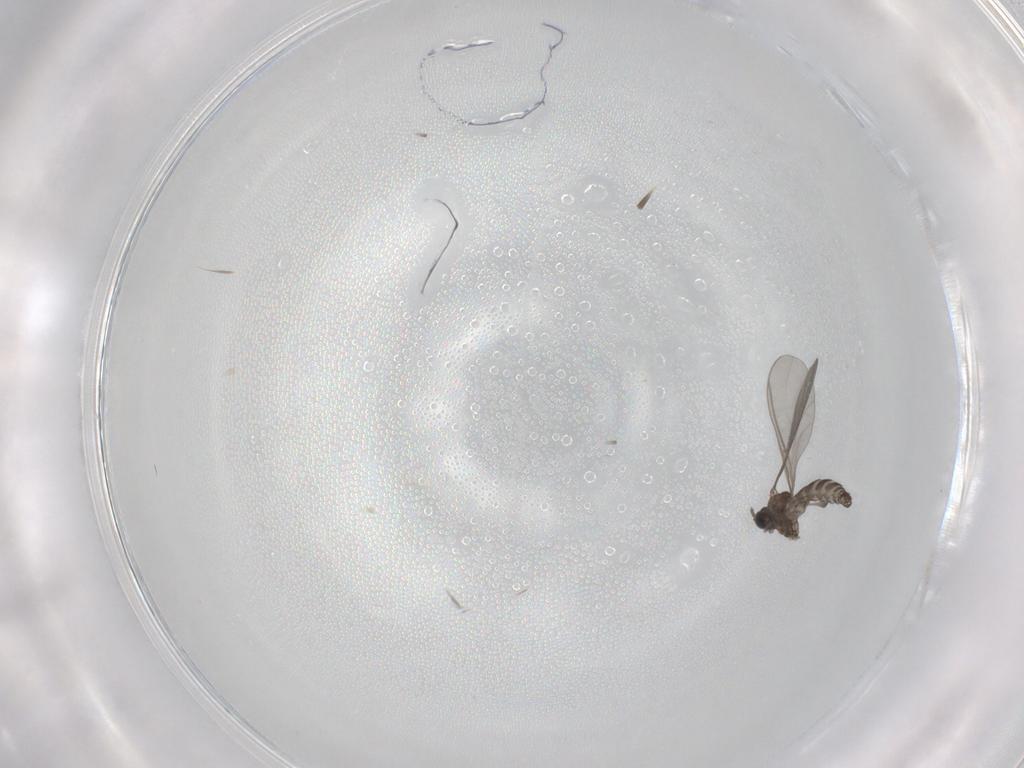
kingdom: Animalia
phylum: Arthropoda
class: Insecta
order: Diptera
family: Sciaridae
